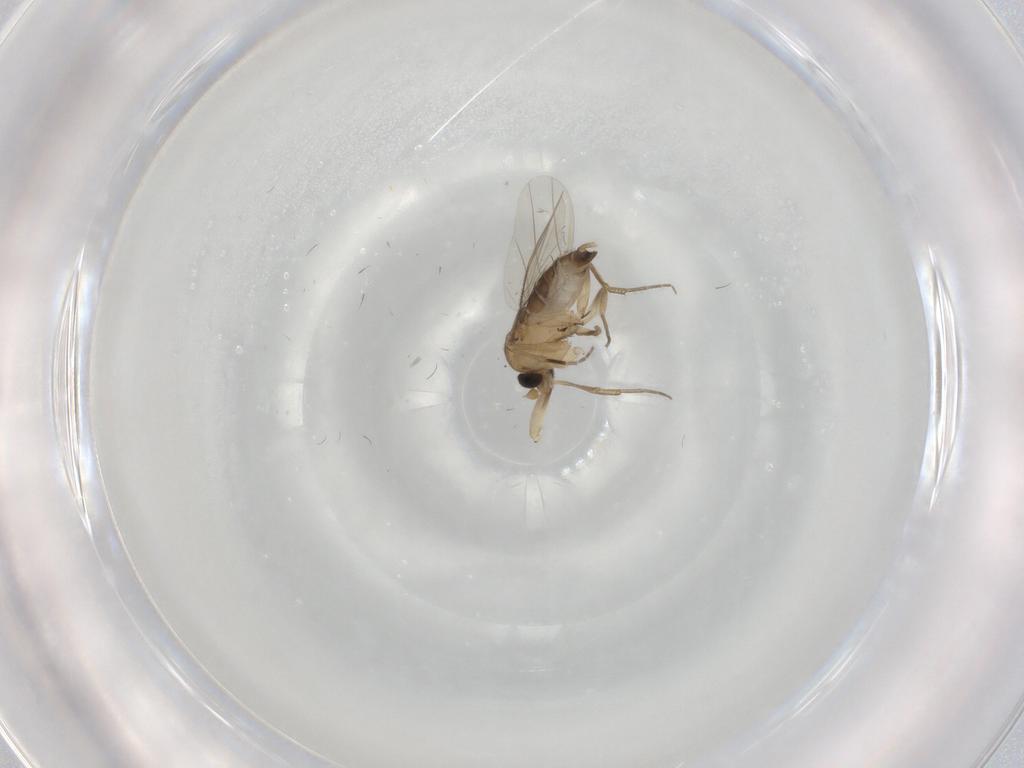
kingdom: Animalia
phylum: Arthropoda
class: Insecta
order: Diptera
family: Phoridae
